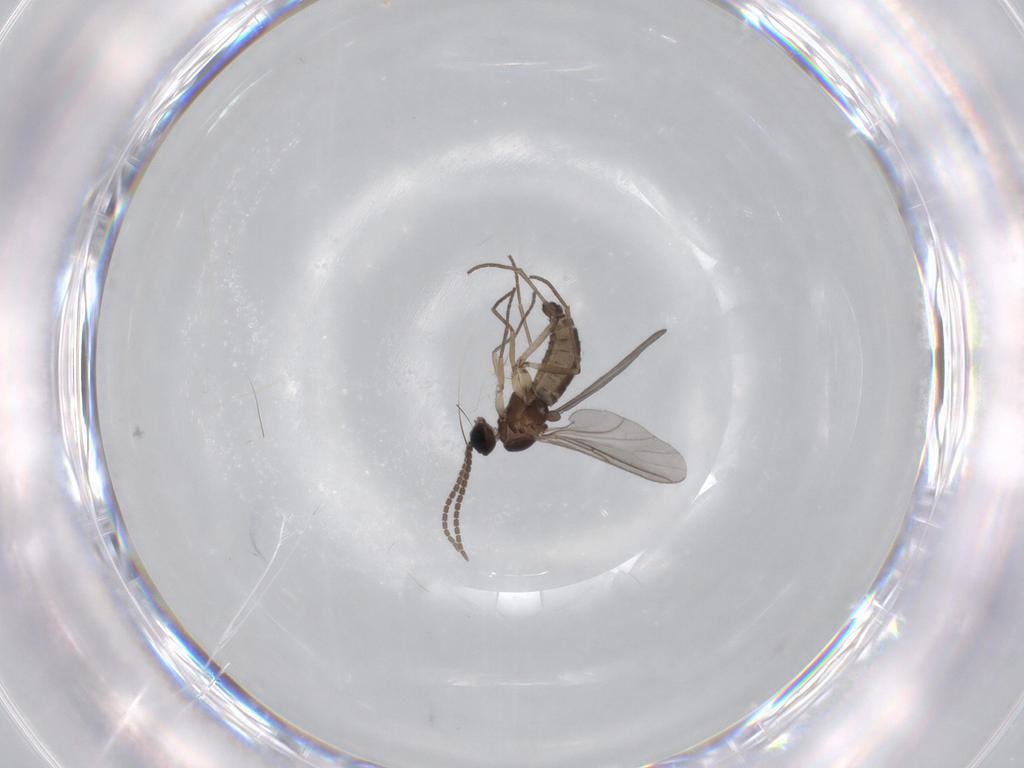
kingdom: Animalia
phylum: Arthropoda
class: Insecta
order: Diptera
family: Sciaridae
